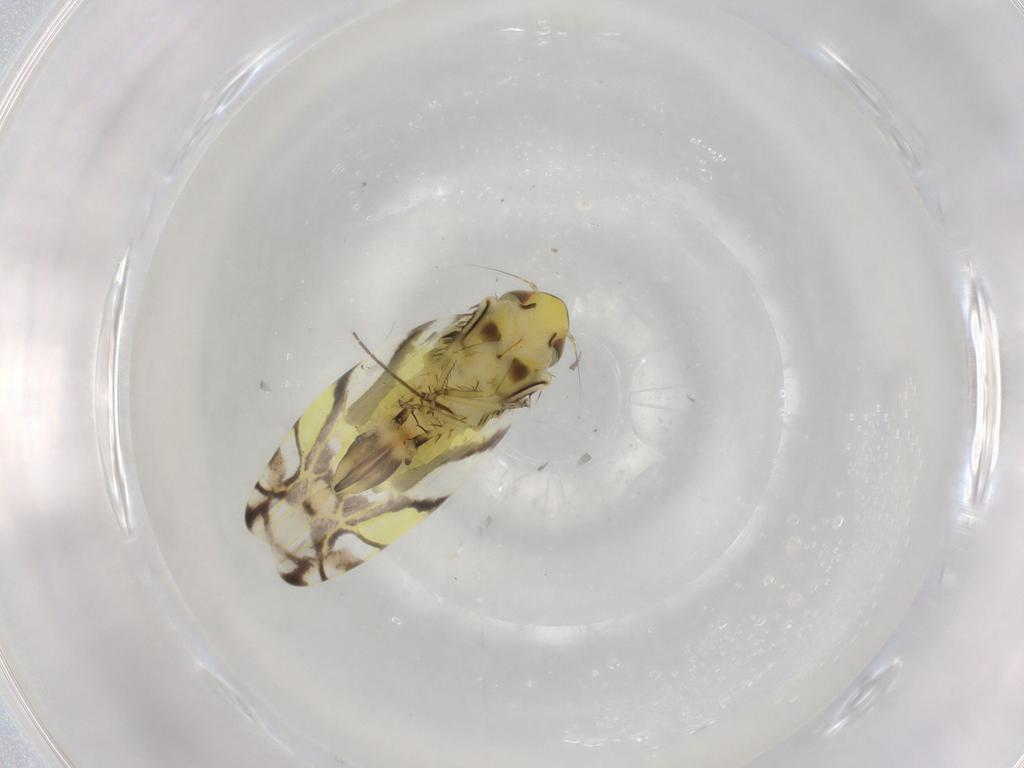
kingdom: Animalia
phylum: Arthropoda
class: Insecta
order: Hemiptera
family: Cicadellidae
